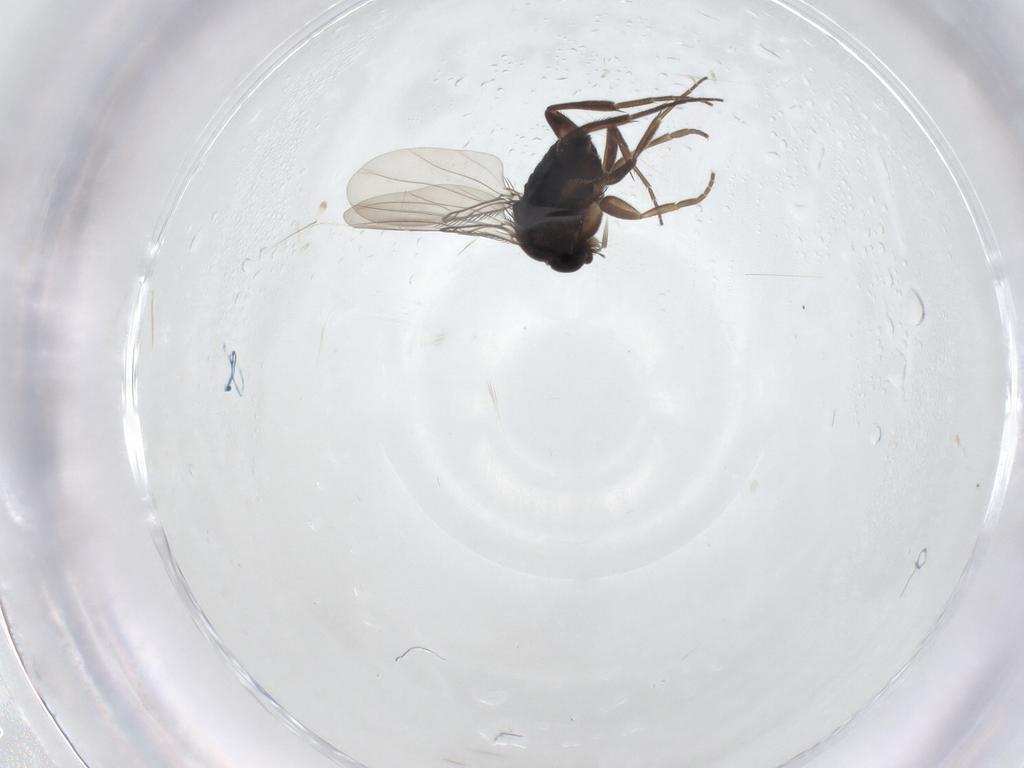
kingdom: Animalia
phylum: Arthropoda
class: Insecta
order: Diptera
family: Phoridae
